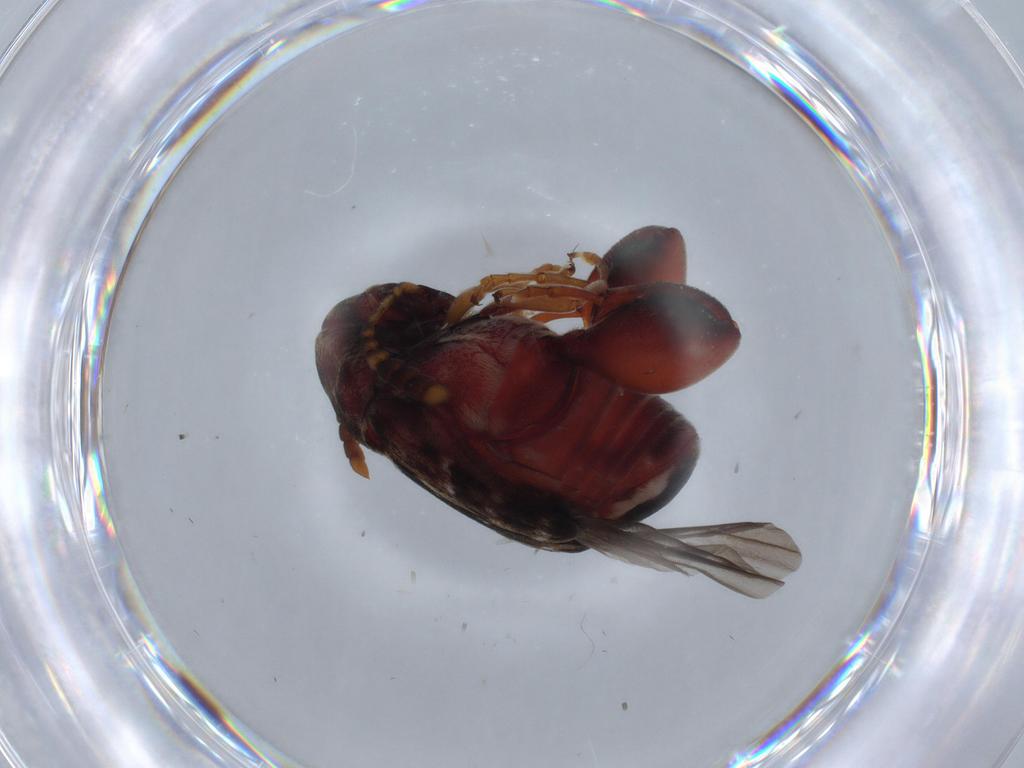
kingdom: Animalia
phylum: Arthropoda
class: Insecta
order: Coleoptera
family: Chrysomelidae
